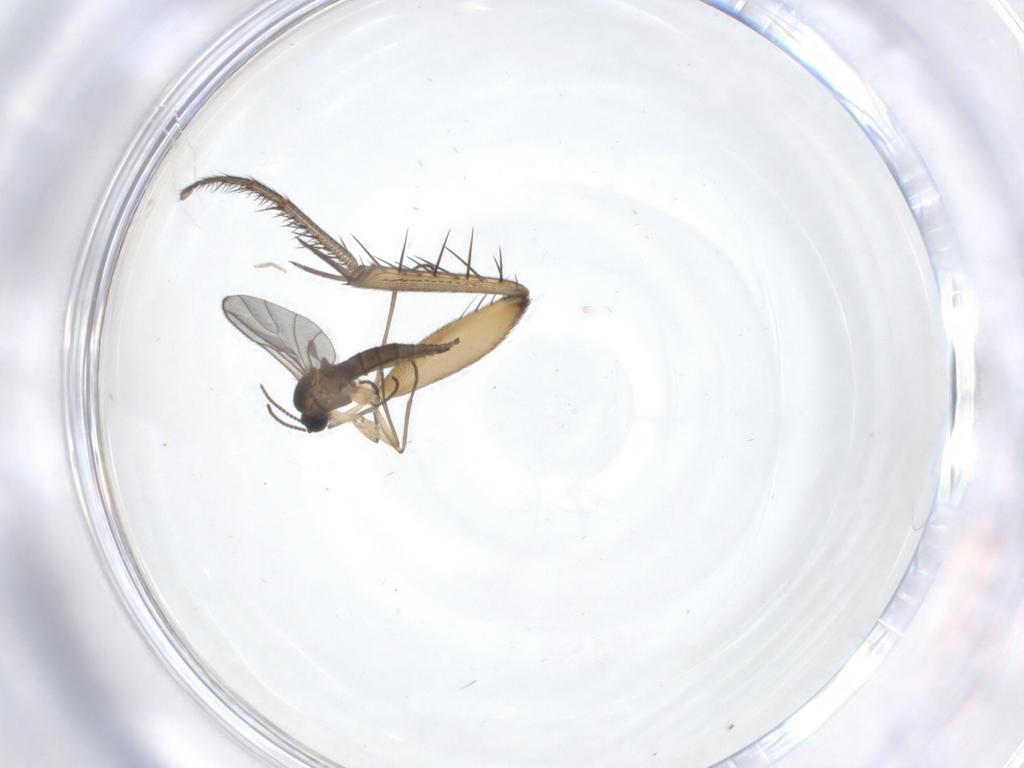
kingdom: Animalia
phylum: Arthropoda
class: Insecta
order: Diptera
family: Sciaridae
